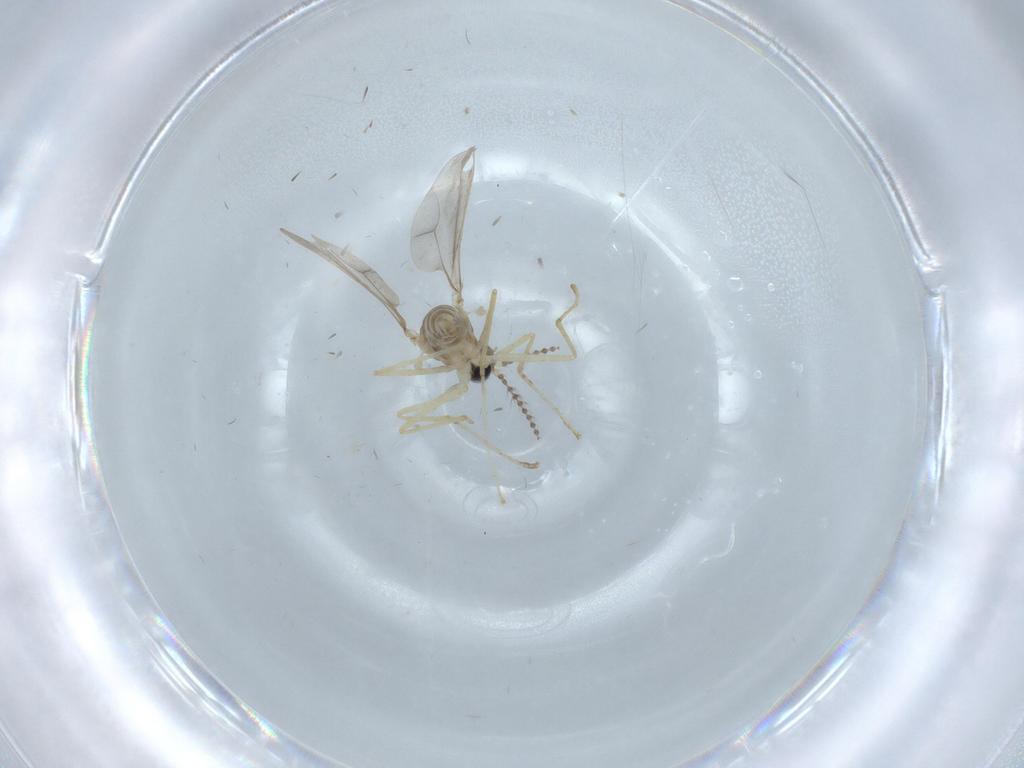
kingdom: Animalia
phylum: Arthropoda
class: Insecta
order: Diptera
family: Cecidomyiidae
